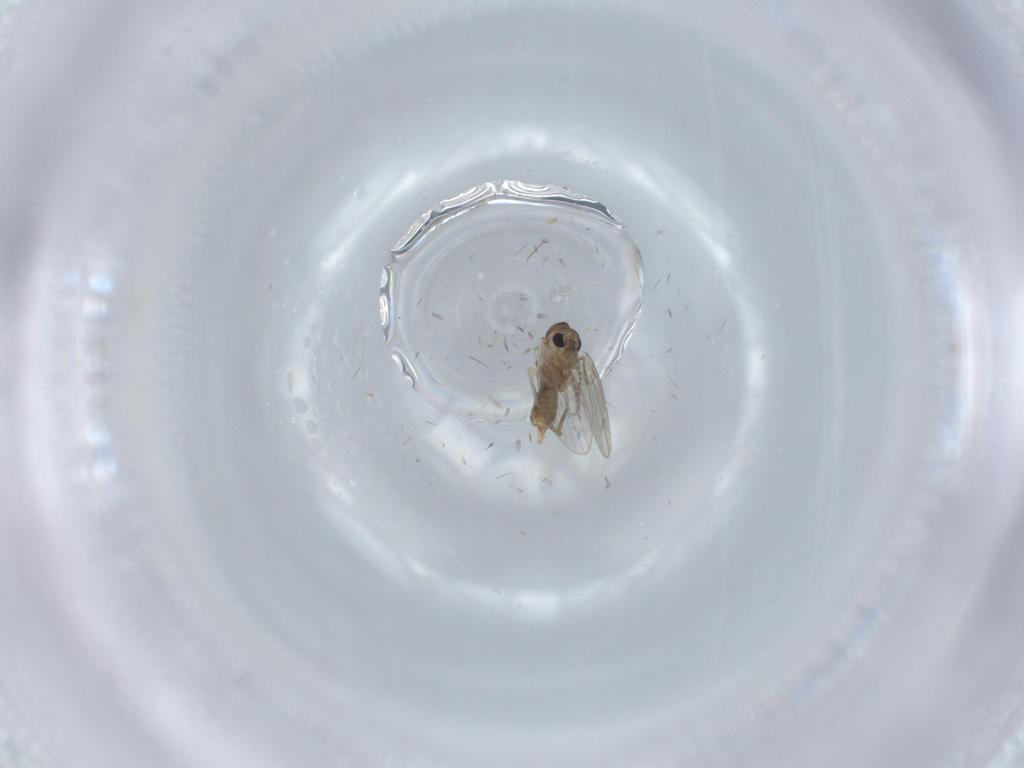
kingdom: Animalia
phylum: Arthropoda
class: Insecta
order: Diptera
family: Psychodidae
